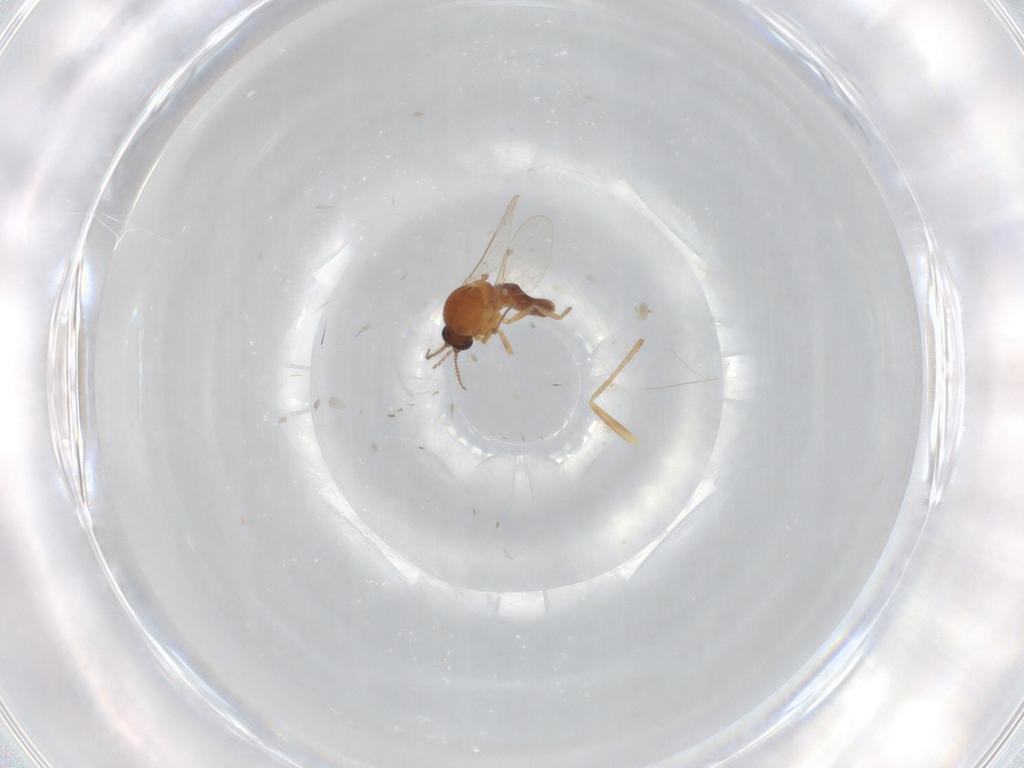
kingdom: Animalia
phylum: Arthropoda
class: Insecta
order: Diptera
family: Ceratopogonidae
